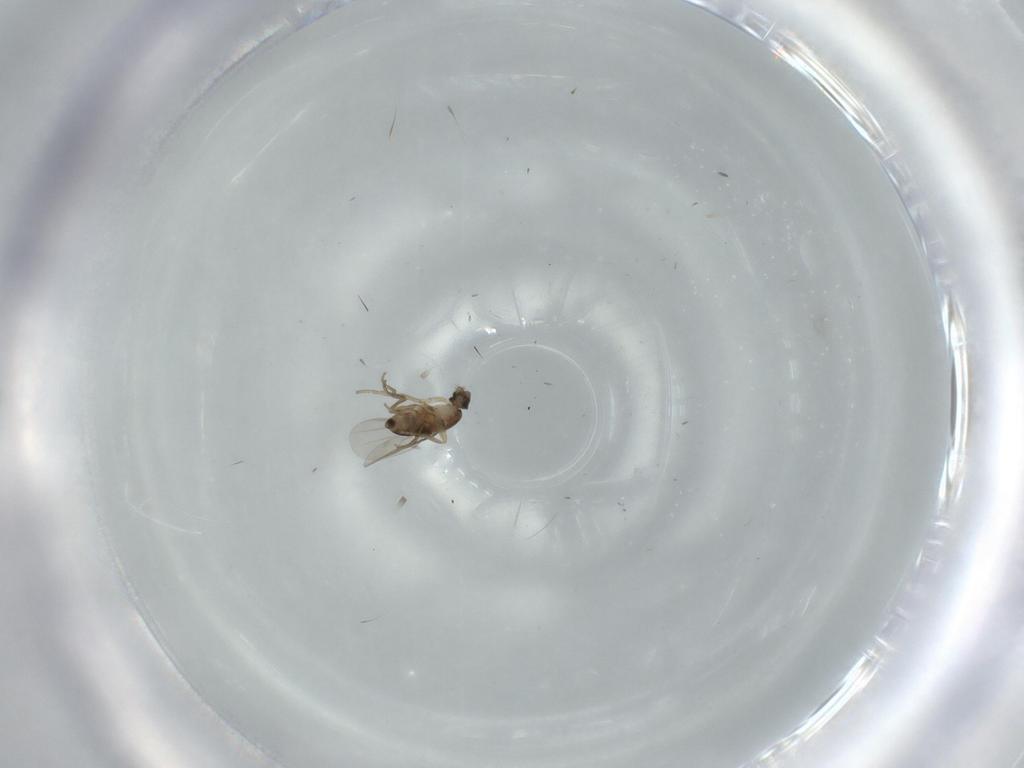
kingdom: Animalia
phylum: Arthropoda
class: Insecta
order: Diptera
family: Phoridae
